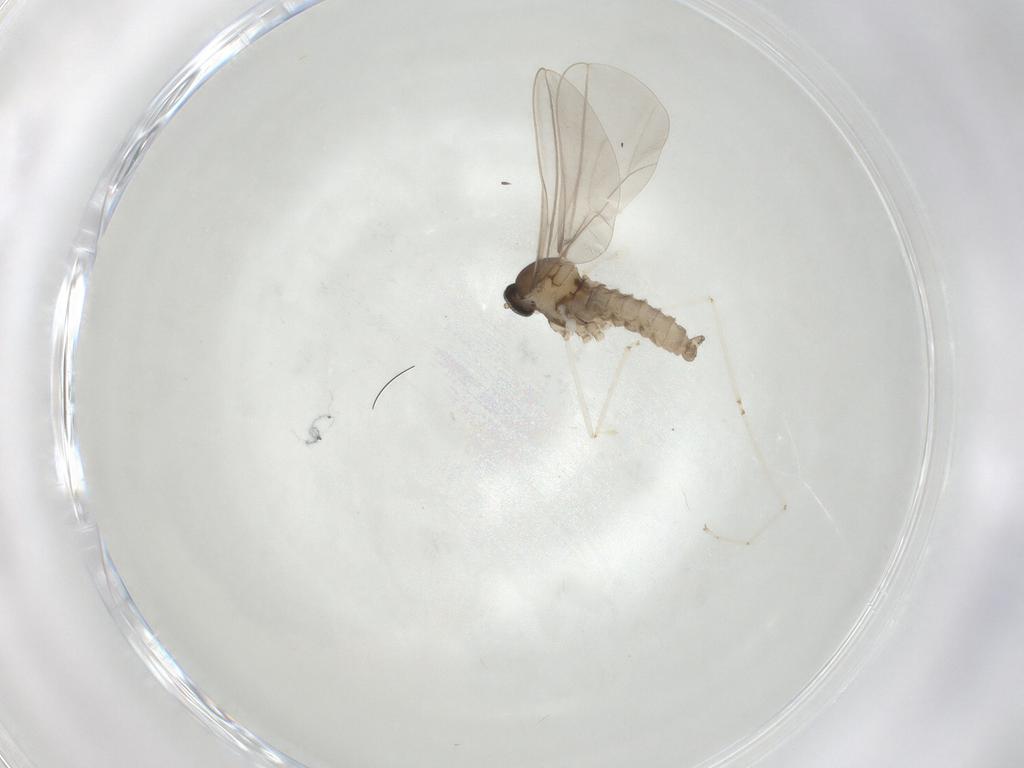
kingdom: Animalia
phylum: Arthropoda
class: Insecta
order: Diptera
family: Cecidomyiidae
